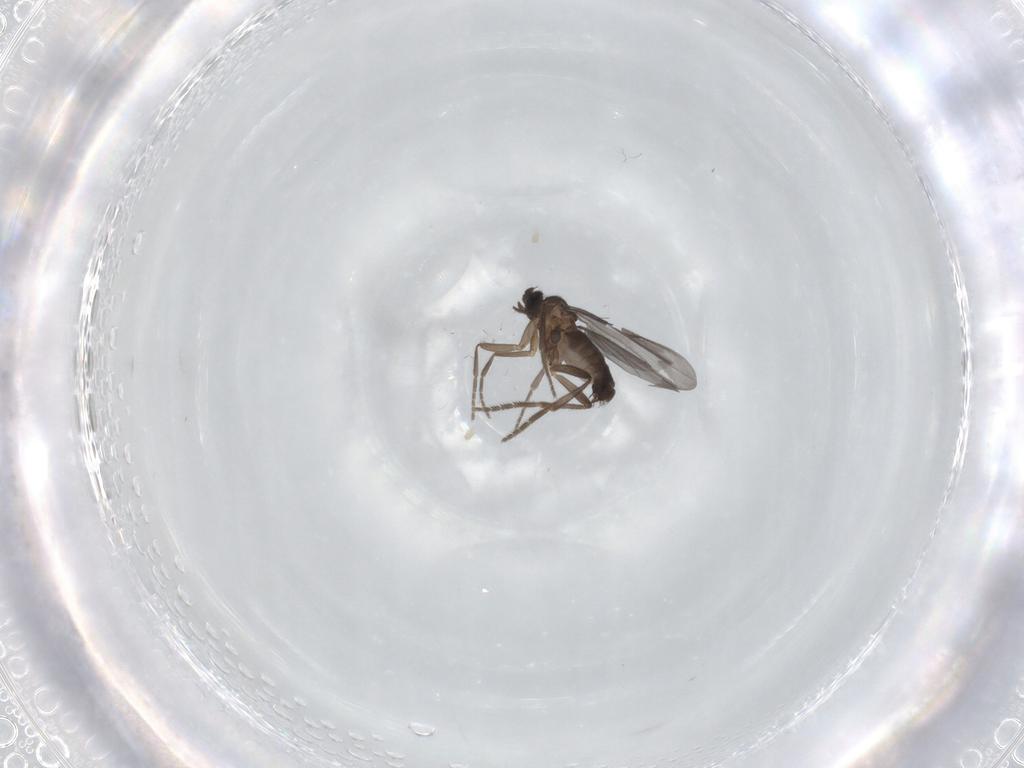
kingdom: Animalia
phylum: Arthropoda
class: Insecta
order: Diptera
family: Phoridae
